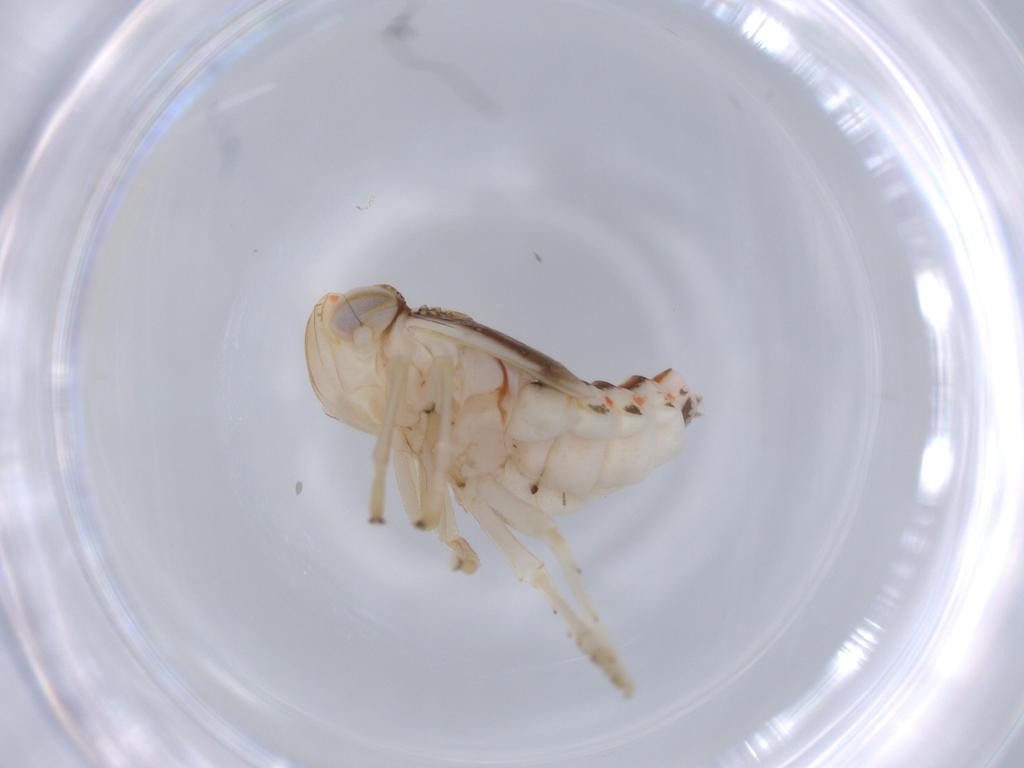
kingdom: Animalia
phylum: Arthropoda
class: Insecta
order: Hemiptera
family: Nogodinidae
